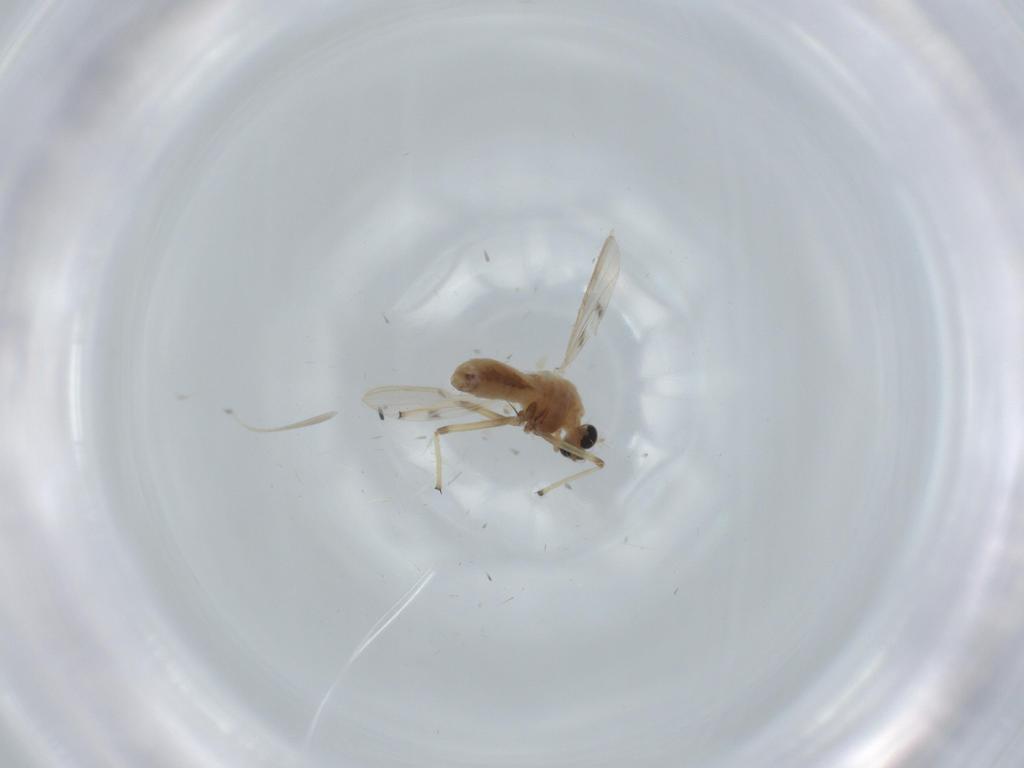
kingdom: Animalia
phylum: Arthropoda
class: Insecta
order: Diptera
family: Chironomidae
